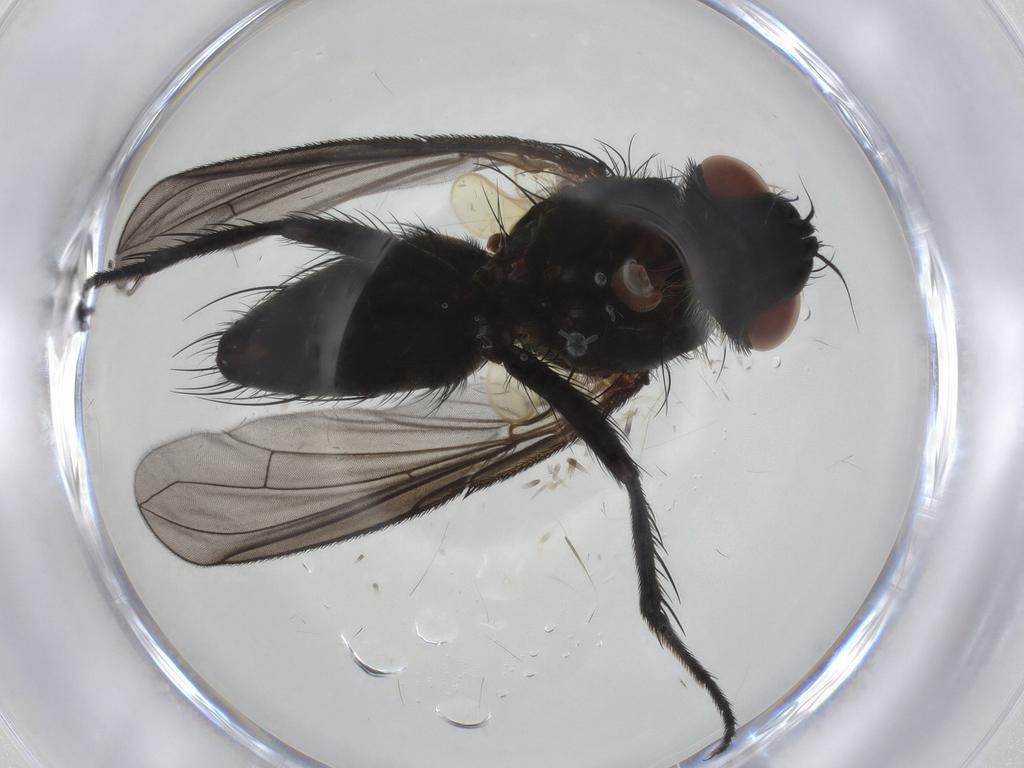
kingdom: Animalia
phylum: Arthropoda
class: Insecta
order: Diptera
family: Tachinidae
